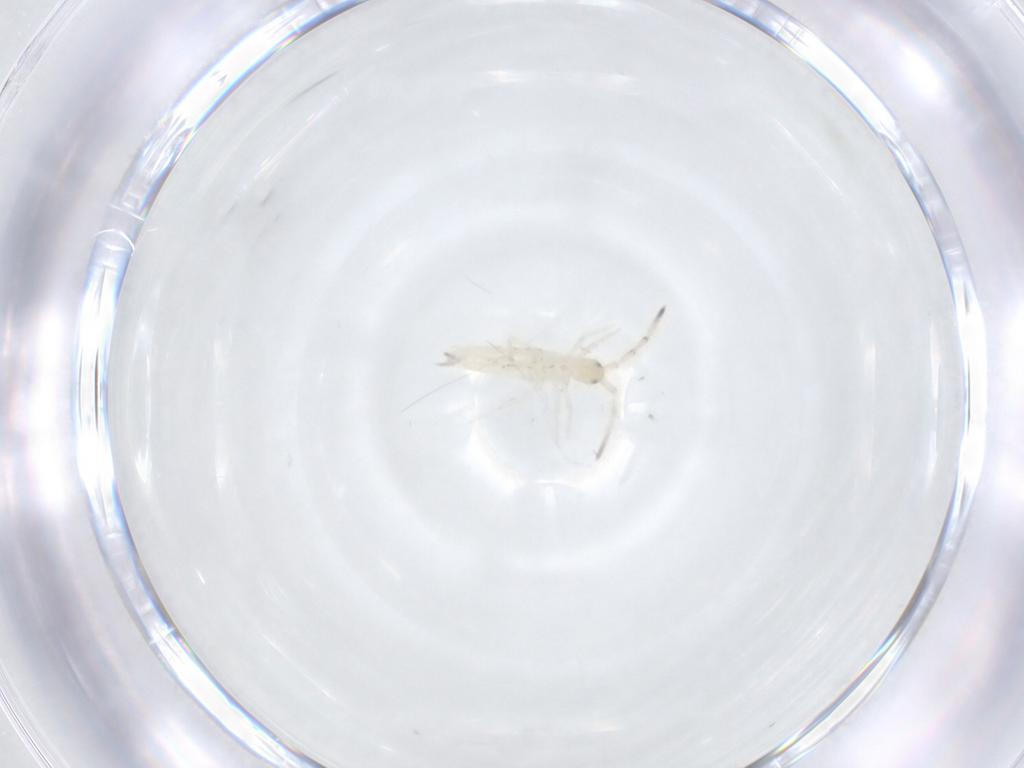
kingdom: Animalia
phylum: Arthropoda
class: Collembola
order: Entomobryomorpha
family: Entomobryidae
